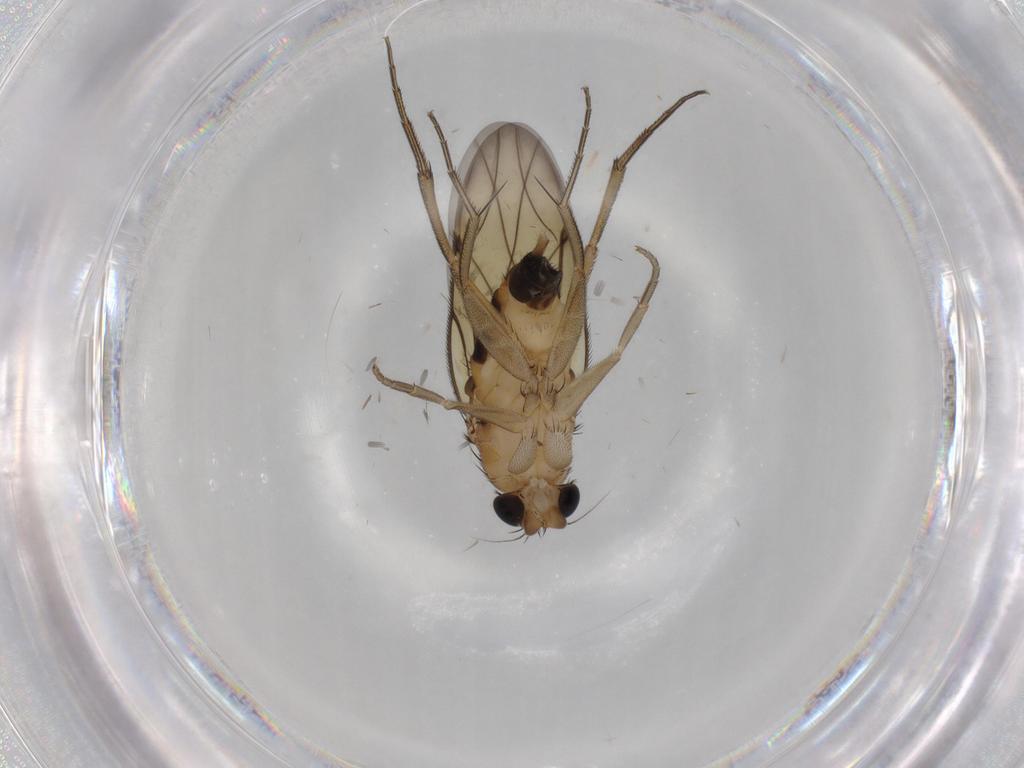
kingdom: Animalia
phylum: Arthropoda
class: Insecta
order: Diptera
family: Phoridae
